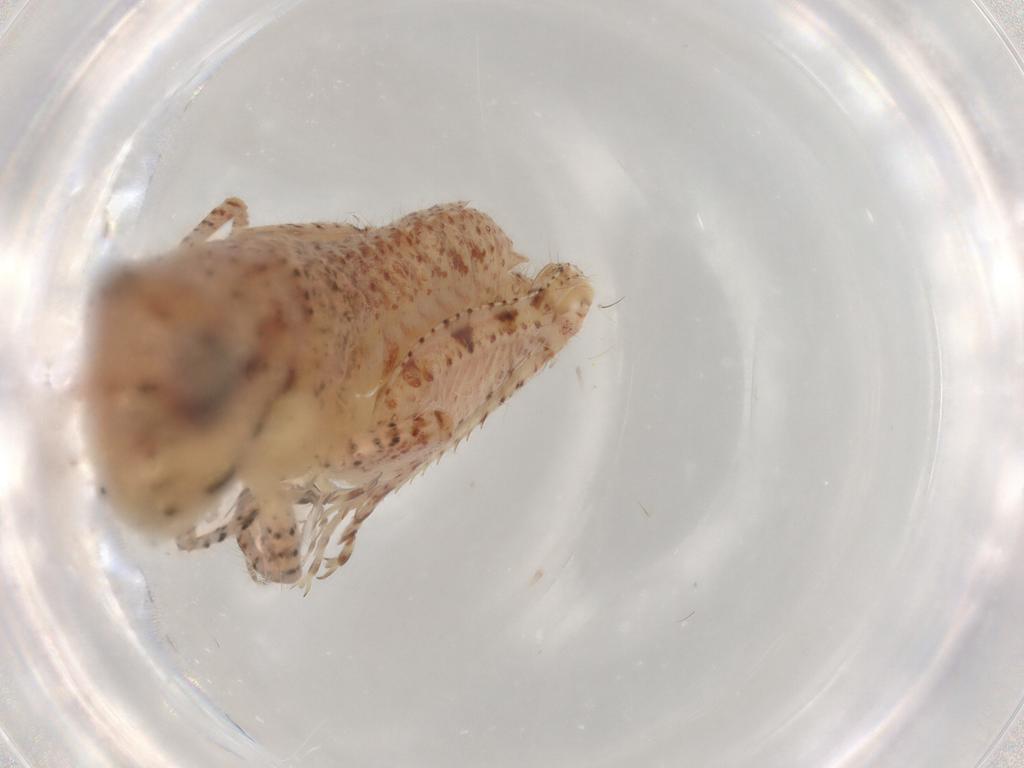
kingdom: Animalia
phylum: Arthropoda
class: Insecta
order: Orthoptera
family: Acrididae
